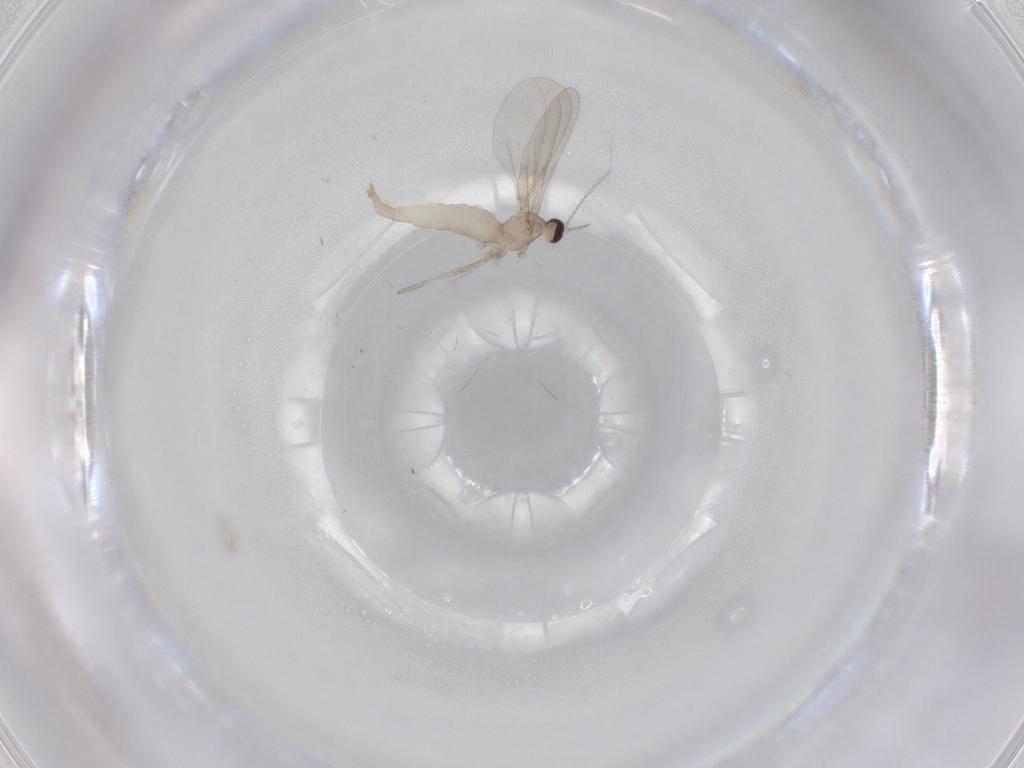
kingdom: Animalia
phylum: Arthropoda
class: Insecta
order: Diptera
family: Cecidomyiidae
